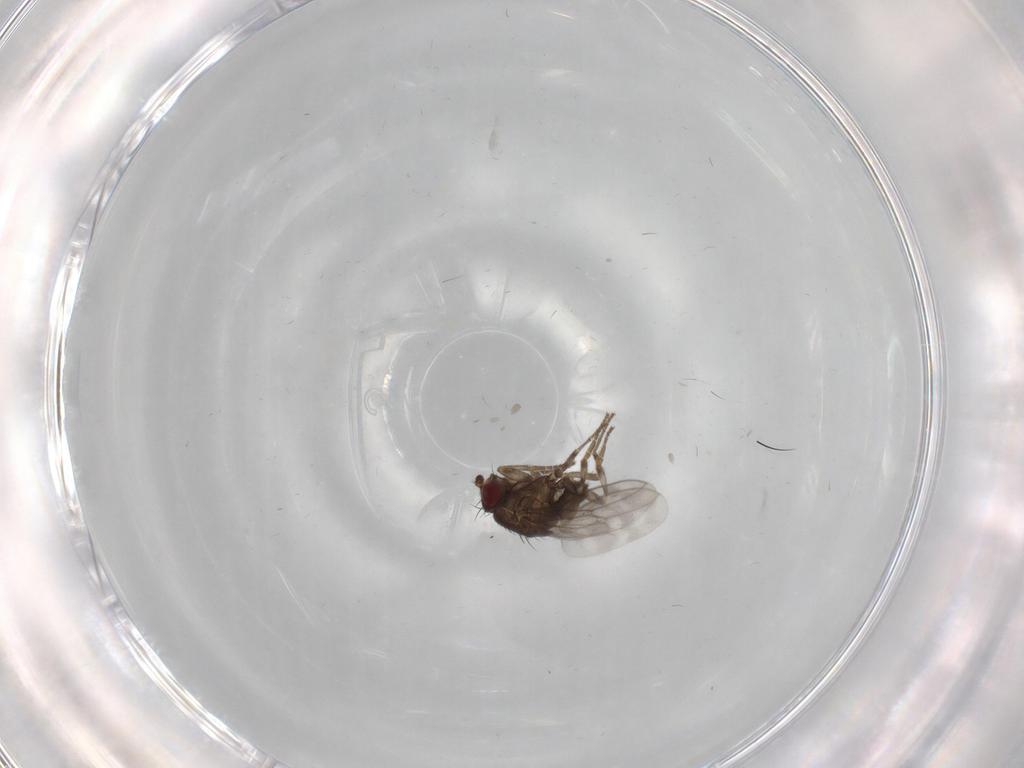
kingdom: Animalia
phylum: Arthropoda
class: Insecta
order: Diptera
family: Sphaeroceridae
